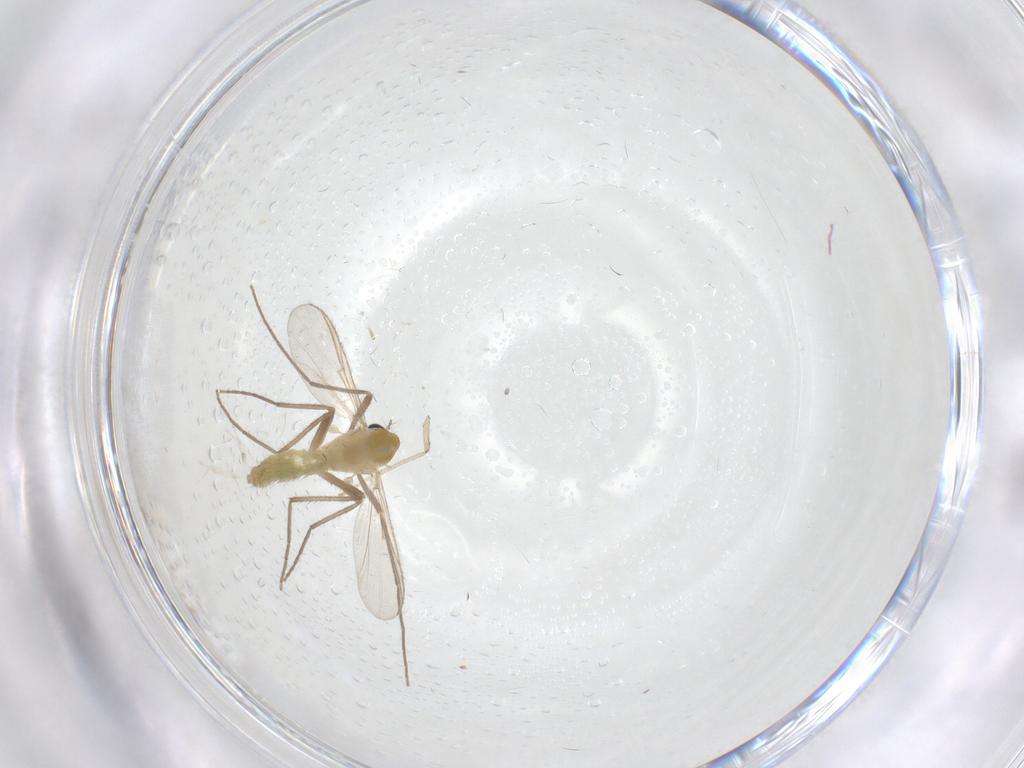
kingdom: Animalia
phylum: Arthropoda
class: Insecta
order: Diptera
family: Chironomidae
